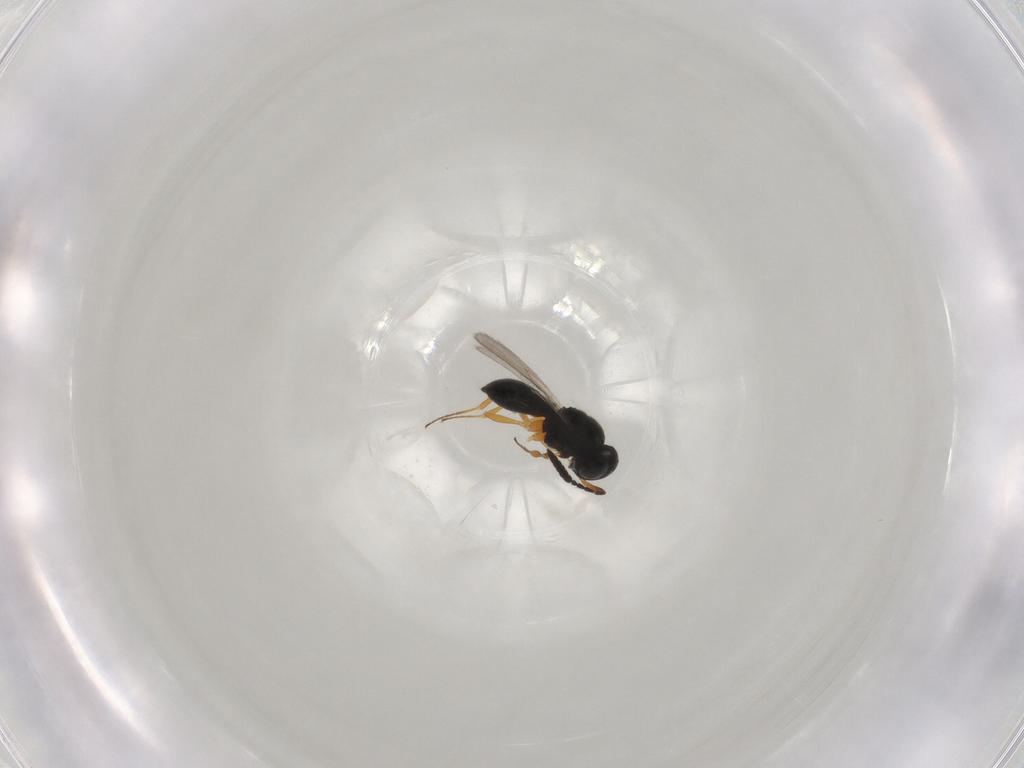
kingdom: Animalia
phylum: Arthropoda
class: Insecta
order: Hymenoptera
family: Scelionidae
